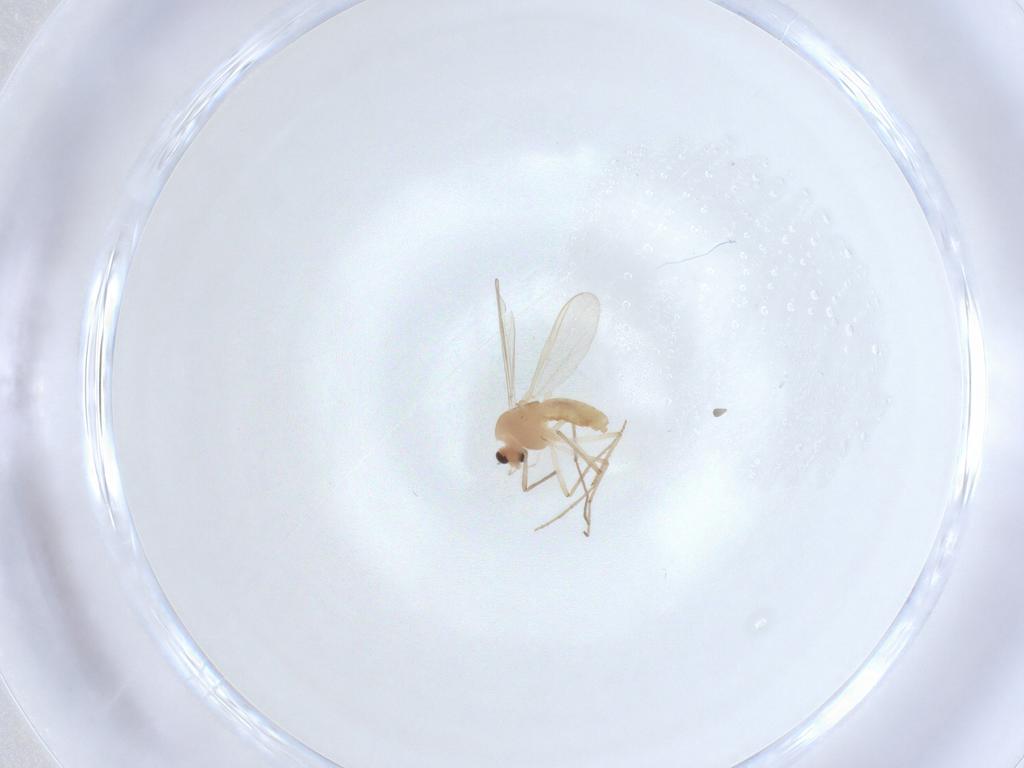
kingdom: Animalia
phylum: Arthropoda
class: Insecta
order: Diptera
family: Chironomidae
